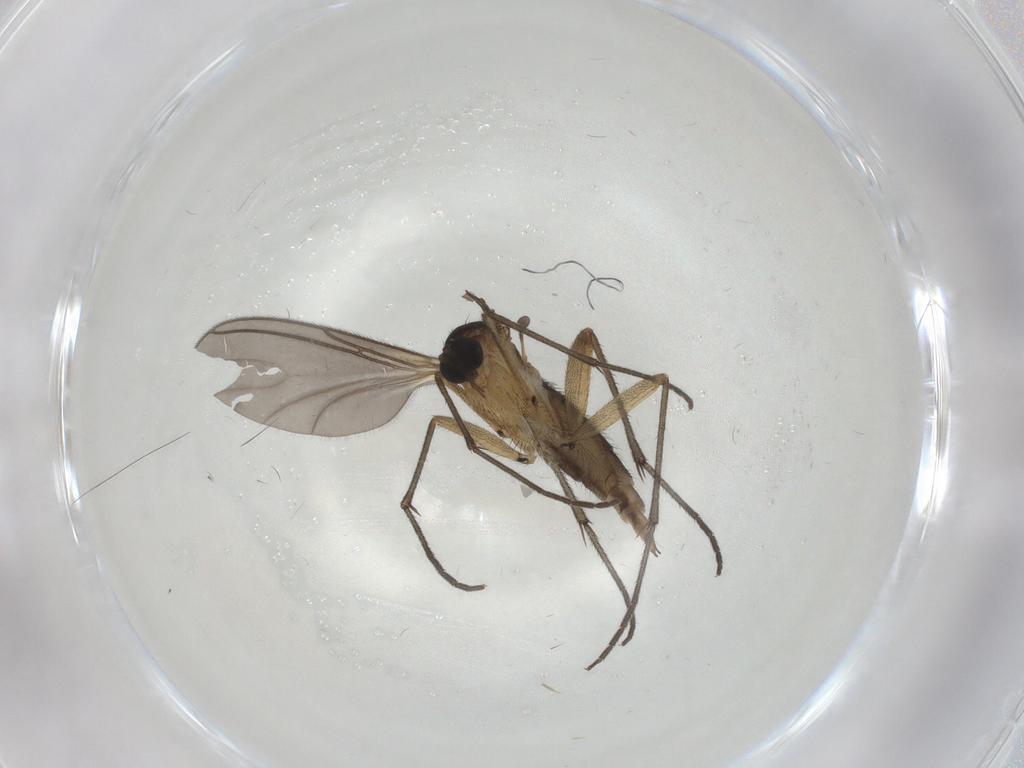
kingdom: Animalia
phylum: Arthropoda
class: Insecta
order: Diptera
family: Sciaridae
